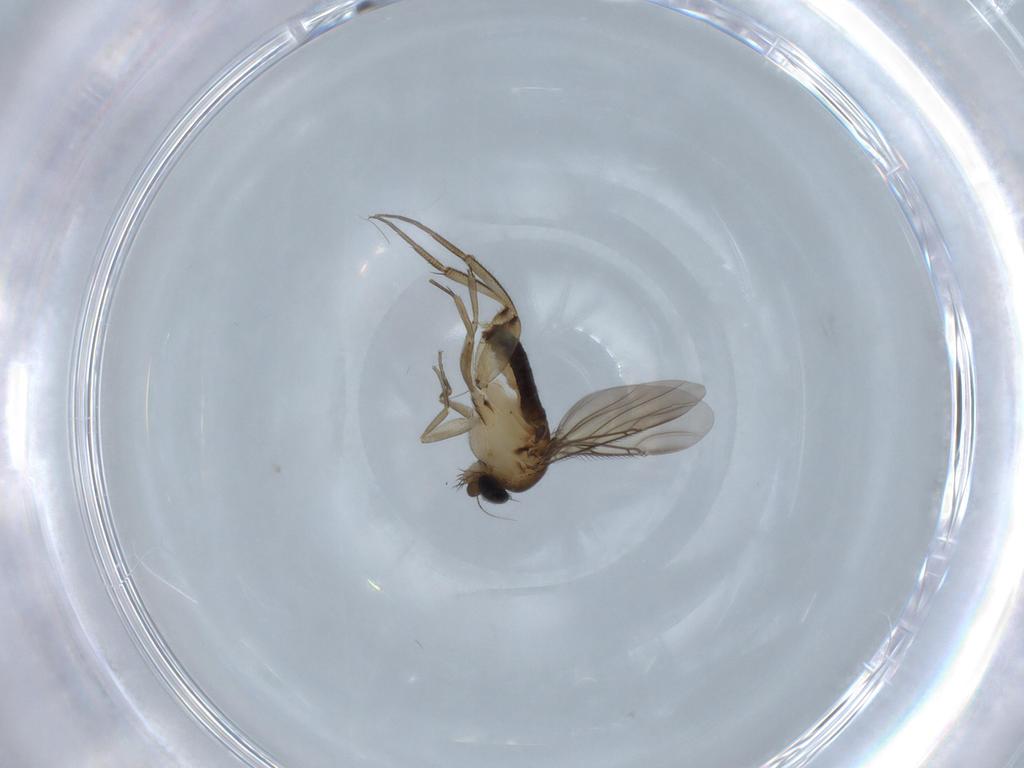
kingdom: Animalia
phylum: Arthropoda
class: Insecta
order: Diptera
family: Phoridae
